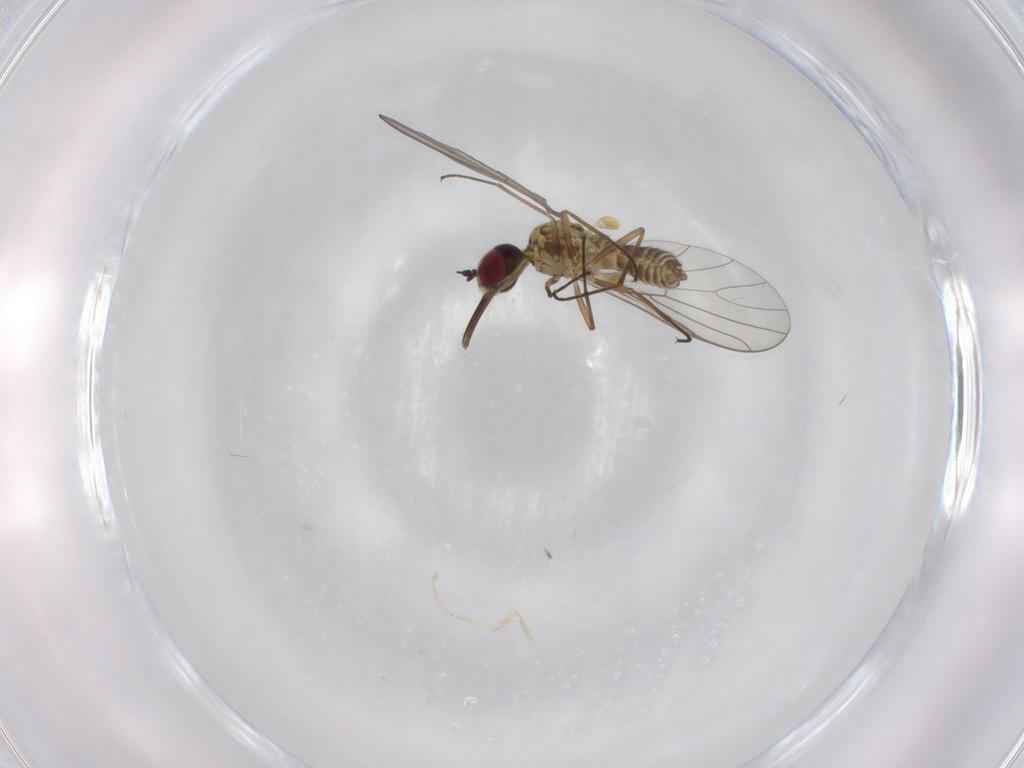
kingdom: Animalia
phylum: Arthropoda
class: Insecta
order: Diptera
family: Bombyliidae
